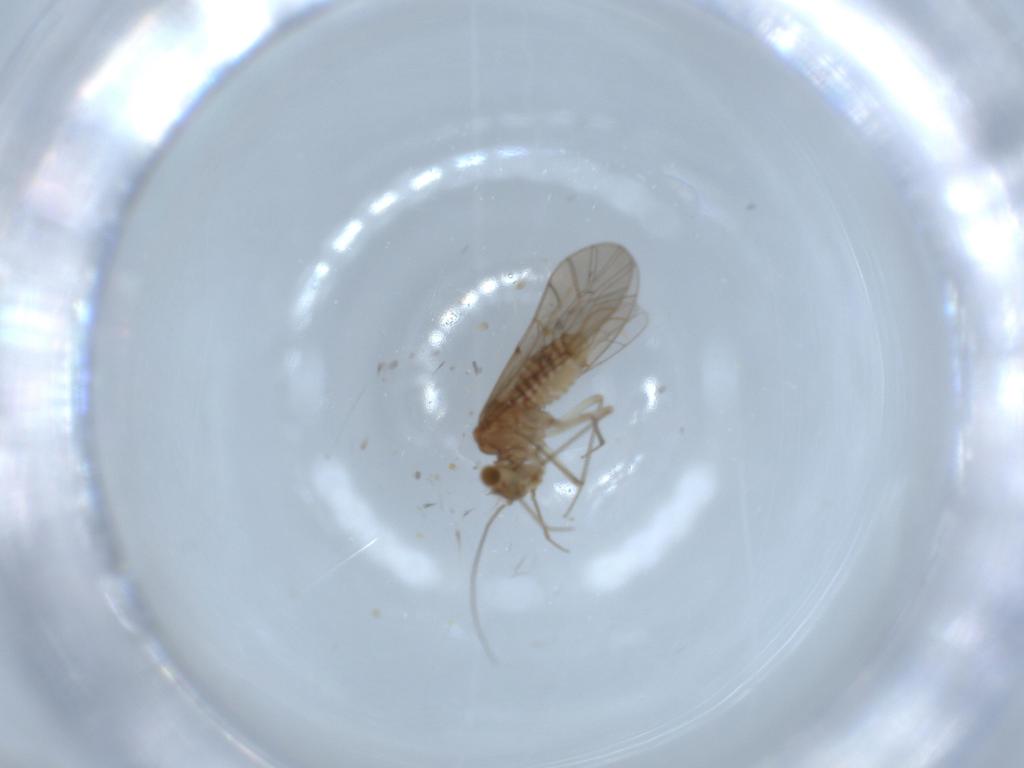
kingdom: Animalia
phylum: Arthropoda
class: Insecta
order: Psocodea
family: Lachesillidae
